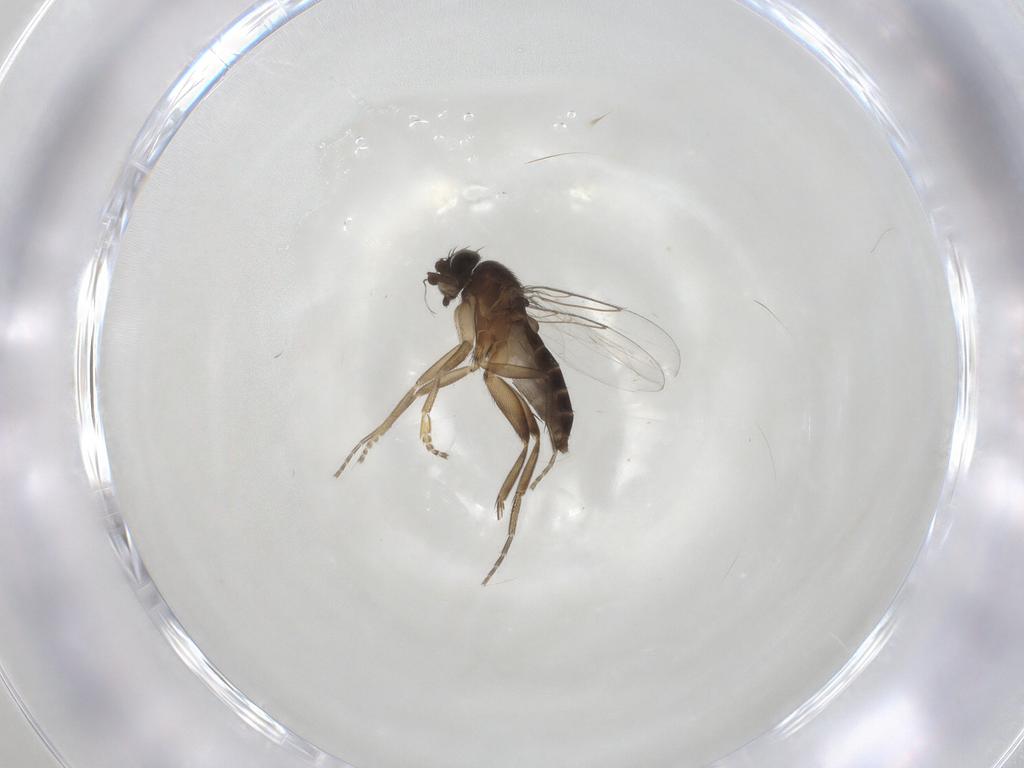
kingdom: Animalia
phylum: Arthropoda
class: Insecta
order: Diptera
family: Phoridae
